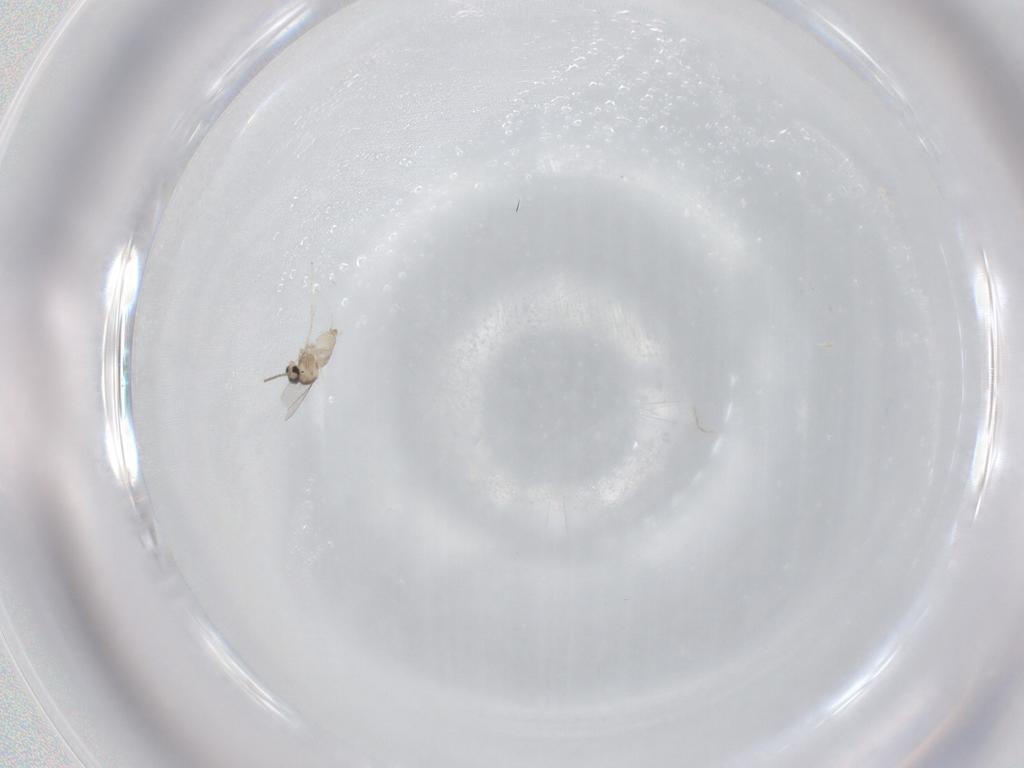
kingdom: Animalia
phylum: Arthropoda
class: Insecta
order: Diptera
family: Cecidomyiidae
